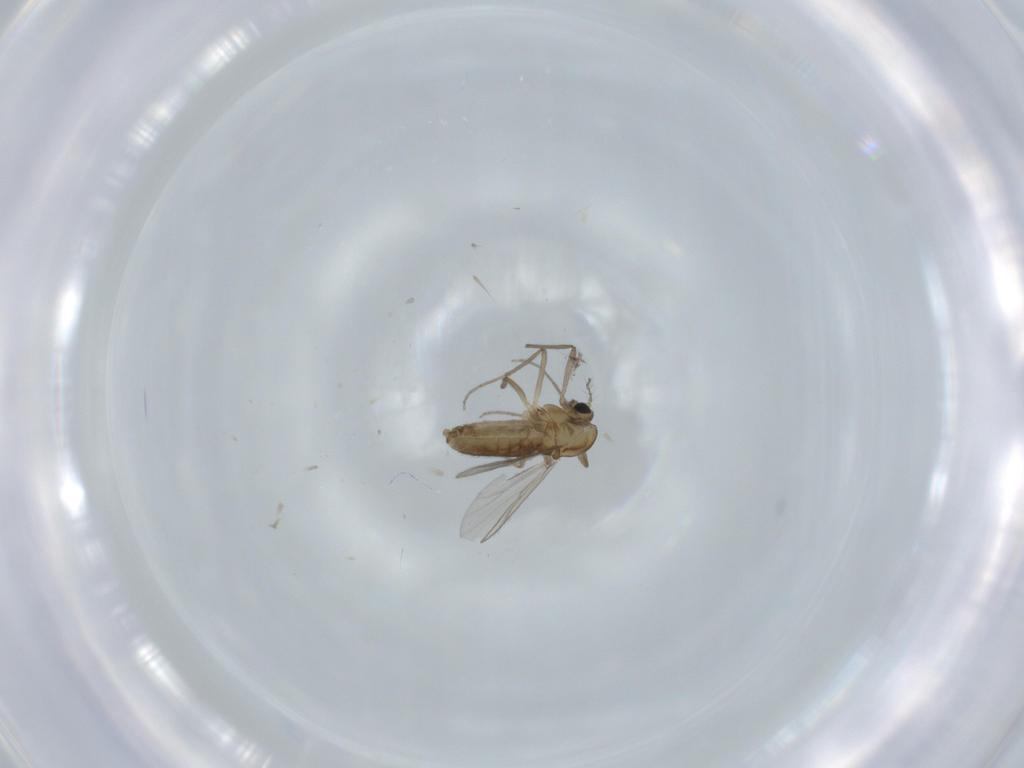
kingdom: Animalia
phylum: Arthropoda
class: Insecta
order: Diptera
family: Chironomidae
